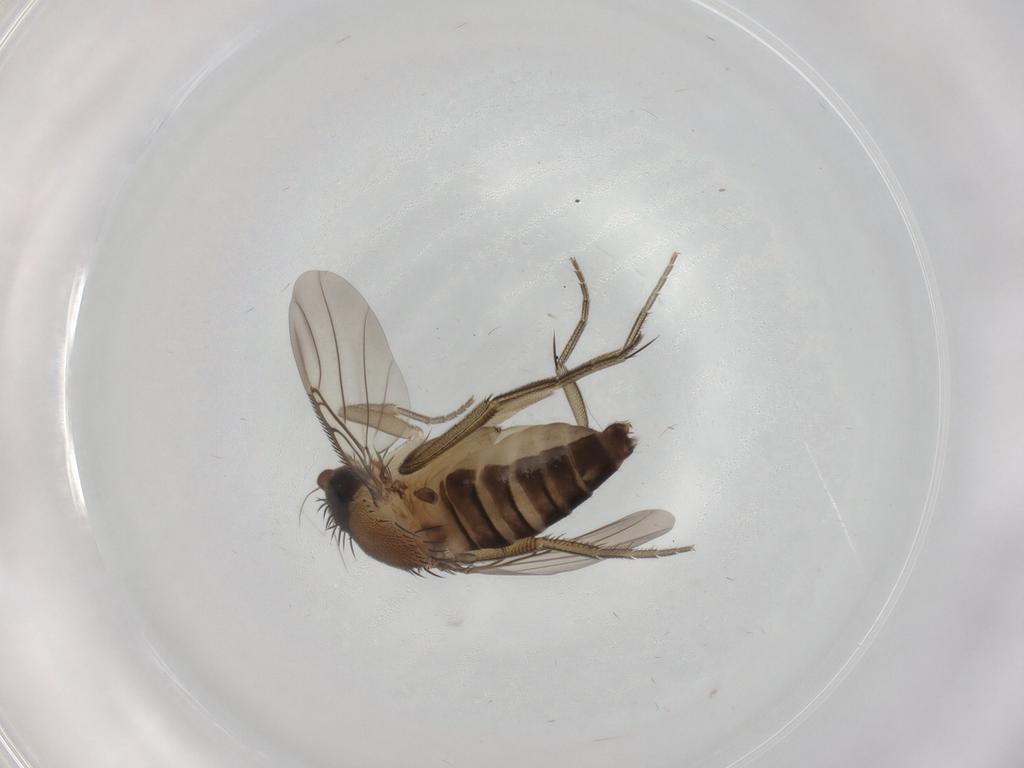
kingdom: Animalia
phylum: Arthropoda
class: Insecta
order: Diptera
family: Phoridae
